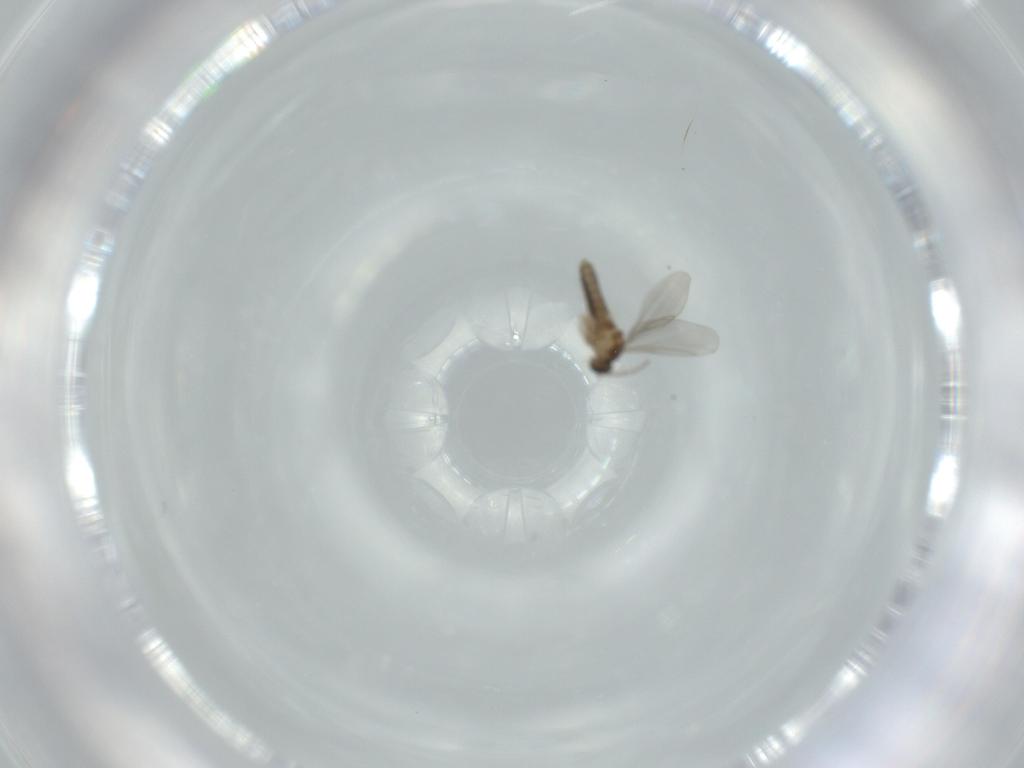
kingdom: Animalia
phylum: Arthropoda
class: Insecta
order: Diptera
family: Cecidomyiidae
